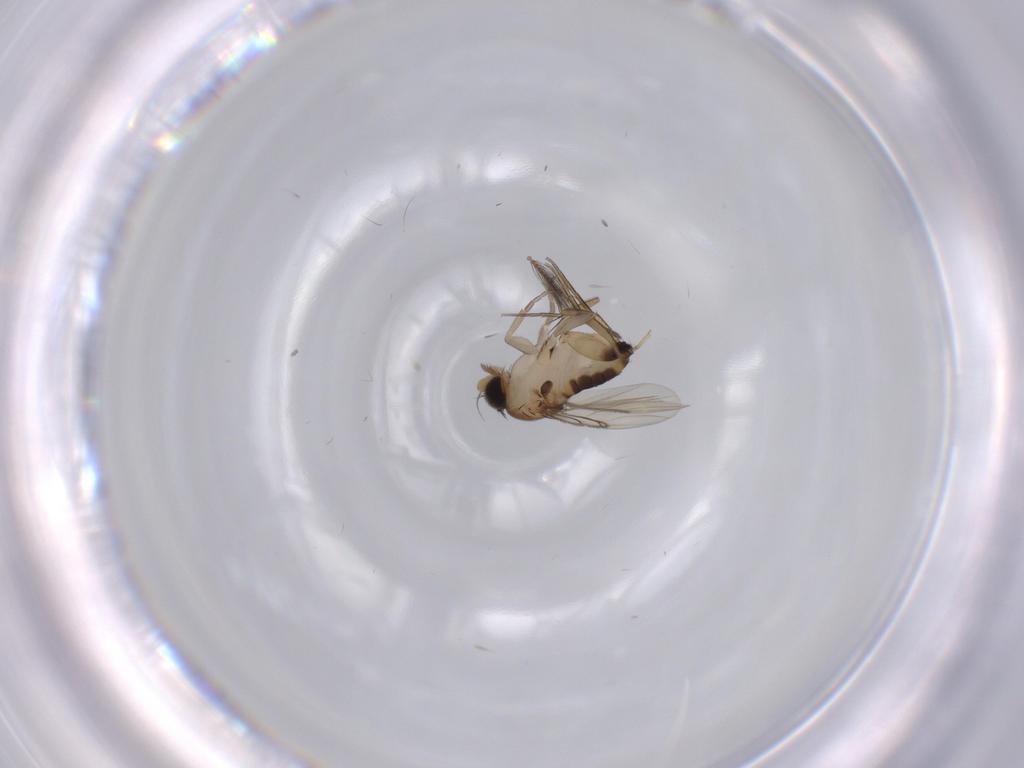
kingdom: Animalia
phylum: Arthropoda
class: Insecta
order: Diptera
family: Sciaridae
